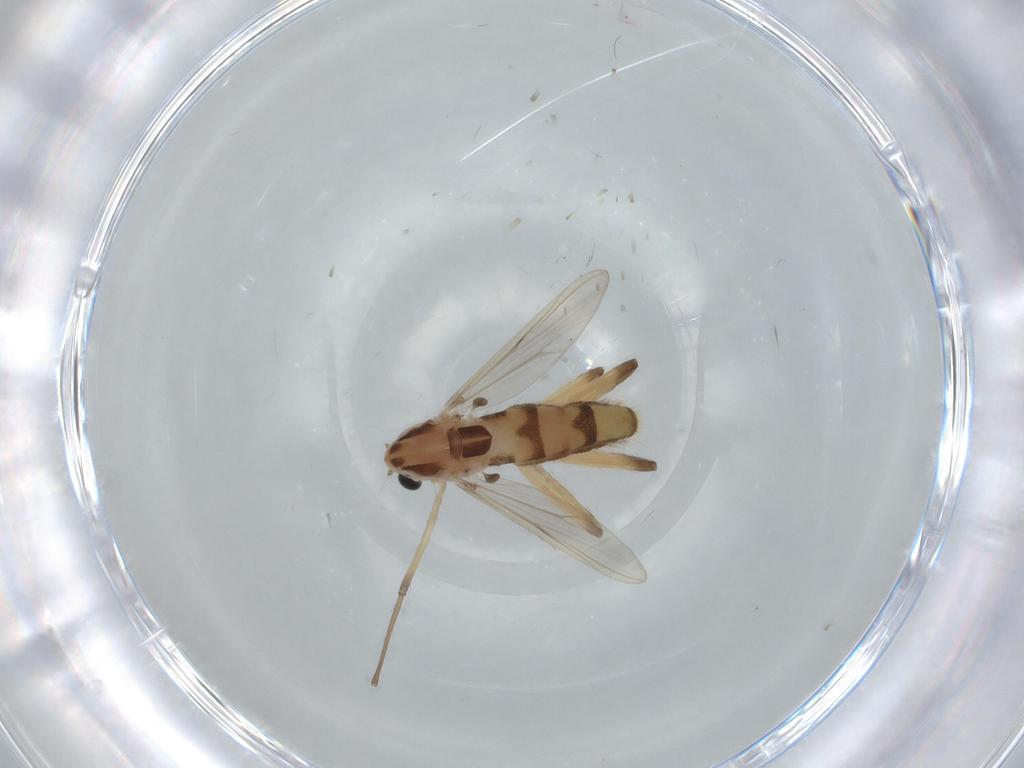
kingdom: Animalia
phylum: Arthropoda
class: Insecta
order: Diptera
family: Chironomidae
